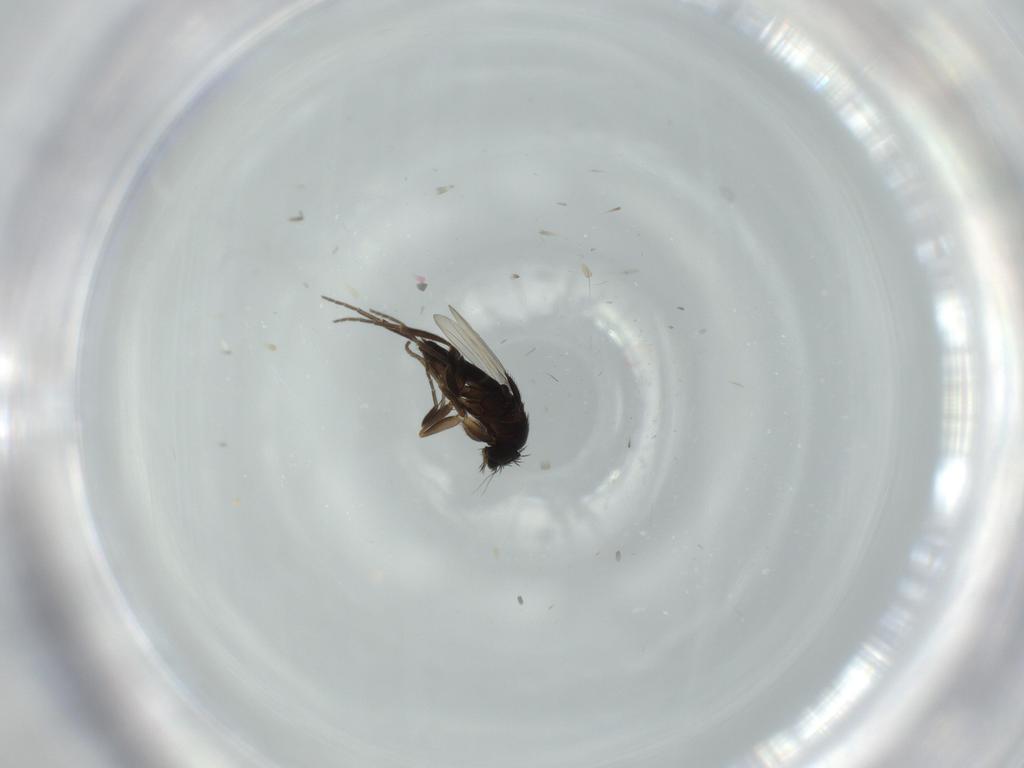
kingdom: Animalia
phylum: Arthropoda
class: Insecta
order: Diptera
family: Phoridae
